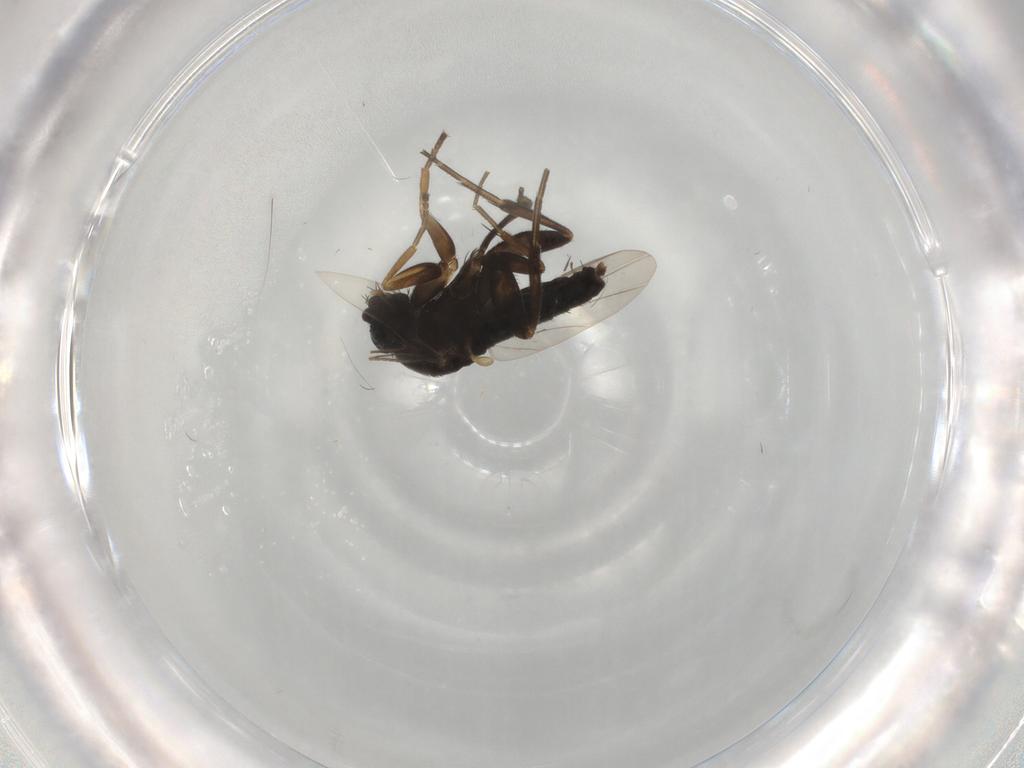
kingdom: Animalia
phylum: Arthropoda
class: Insecta
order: Diptera
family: Phoridae
